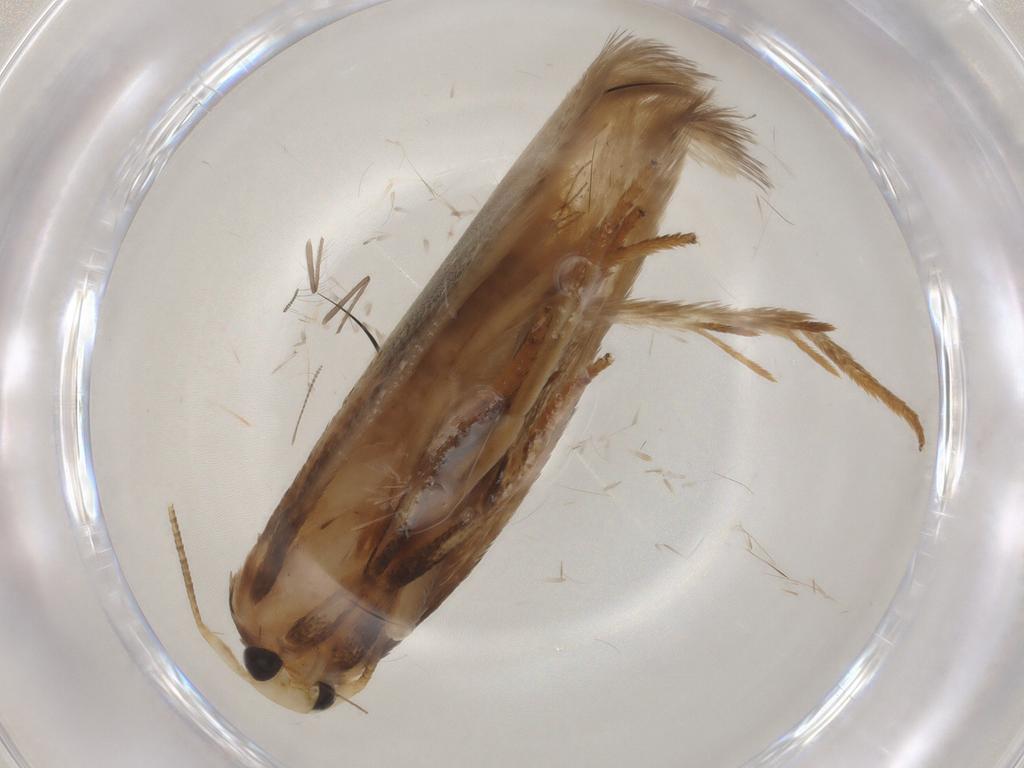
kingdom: Animalia
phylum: Arthropoda
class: Insecta
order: Lepidoptera
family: Geometridae
